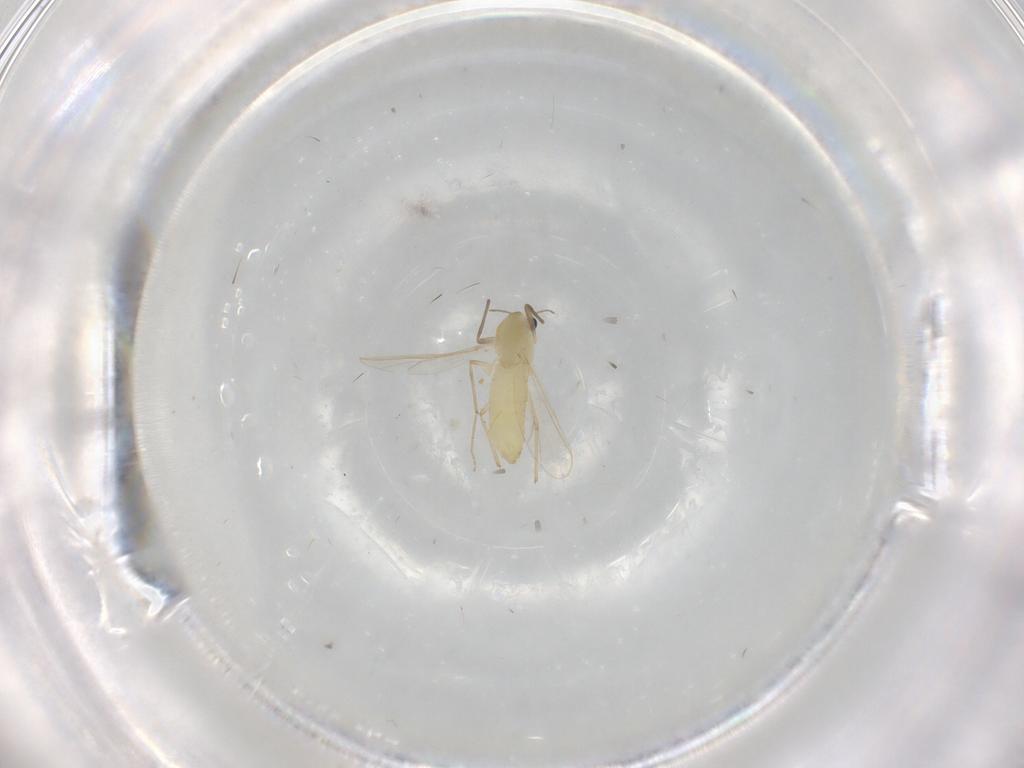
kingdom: Animalia
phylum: Arthropoda
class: Insecta
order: Diptera
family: Chironomidae
